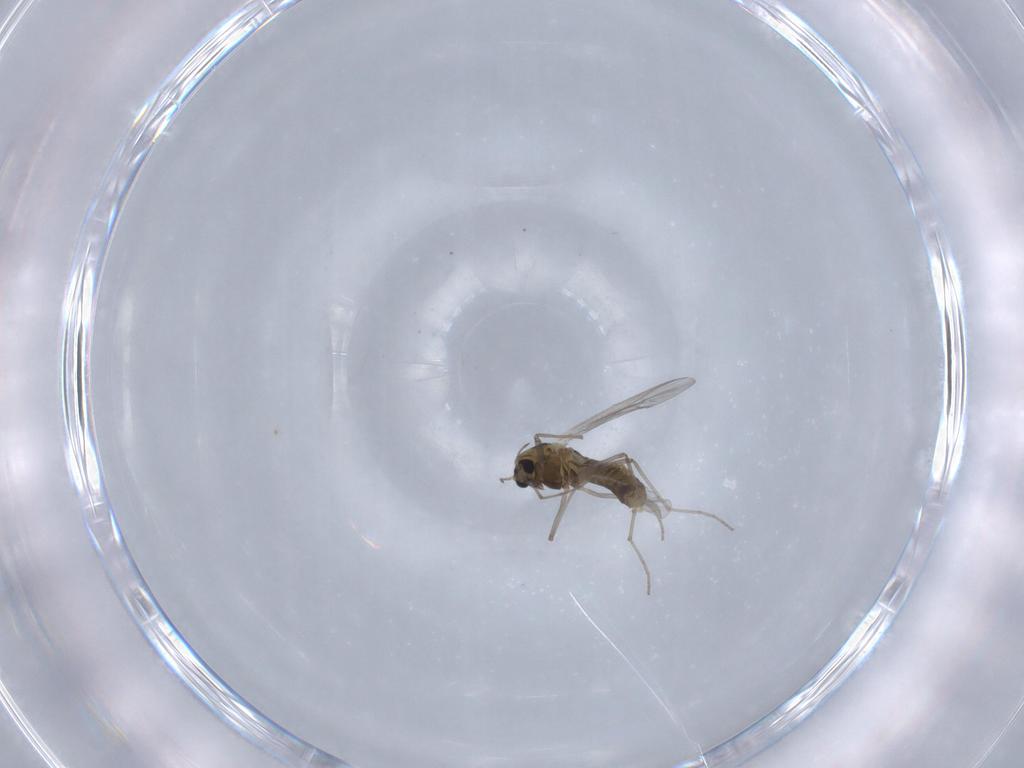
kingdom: Animalia
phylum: Arthropoda
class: Insecta
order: Diptera
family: Chironomidae
